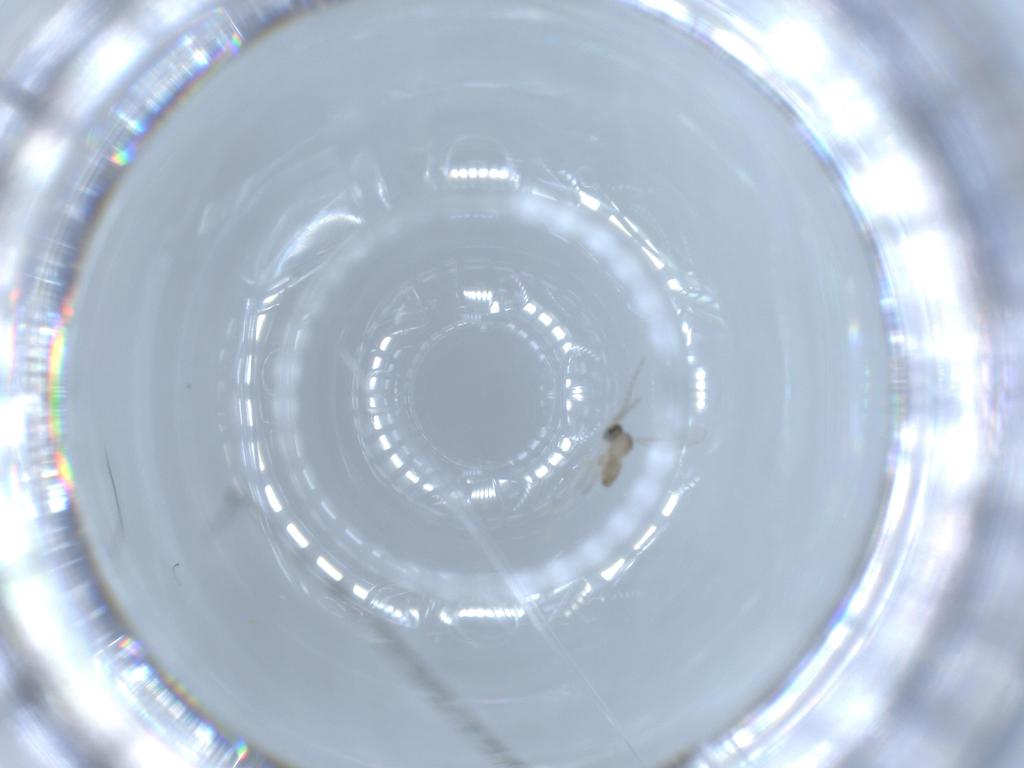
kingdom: Animalia
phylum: Arthropoda
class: Insecta
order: Diptera
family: Cecidomyiidae
